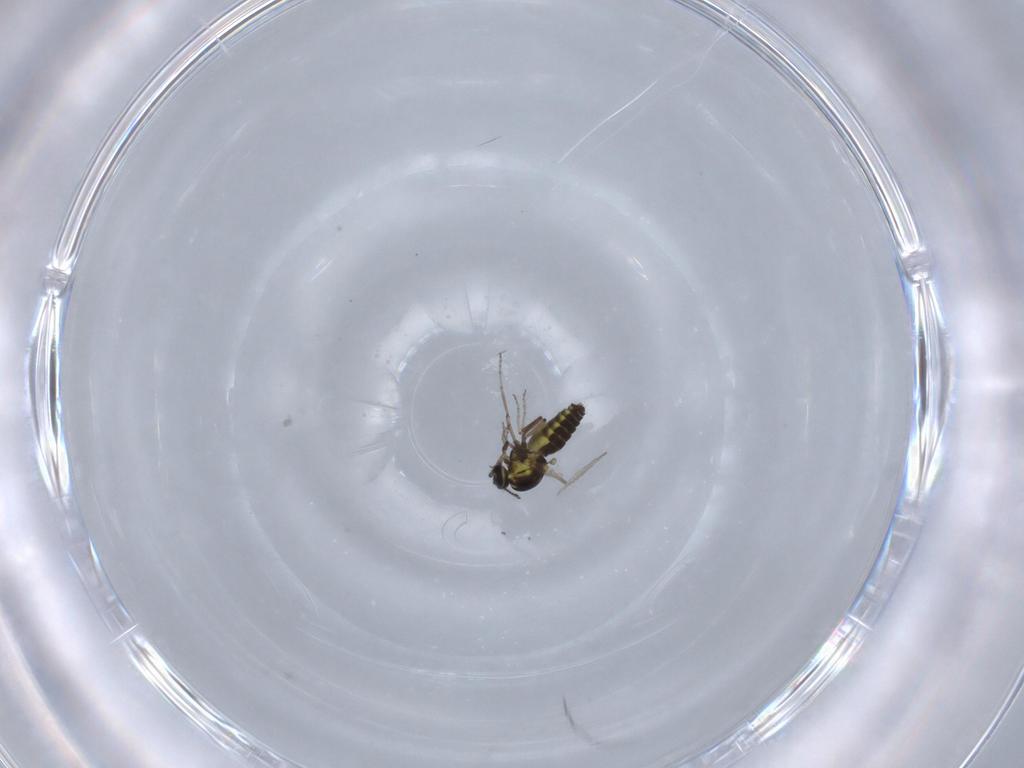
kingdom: Animalia
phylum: Arthropoda
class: Insecta
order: Diptera
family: Ceratopogonidae
